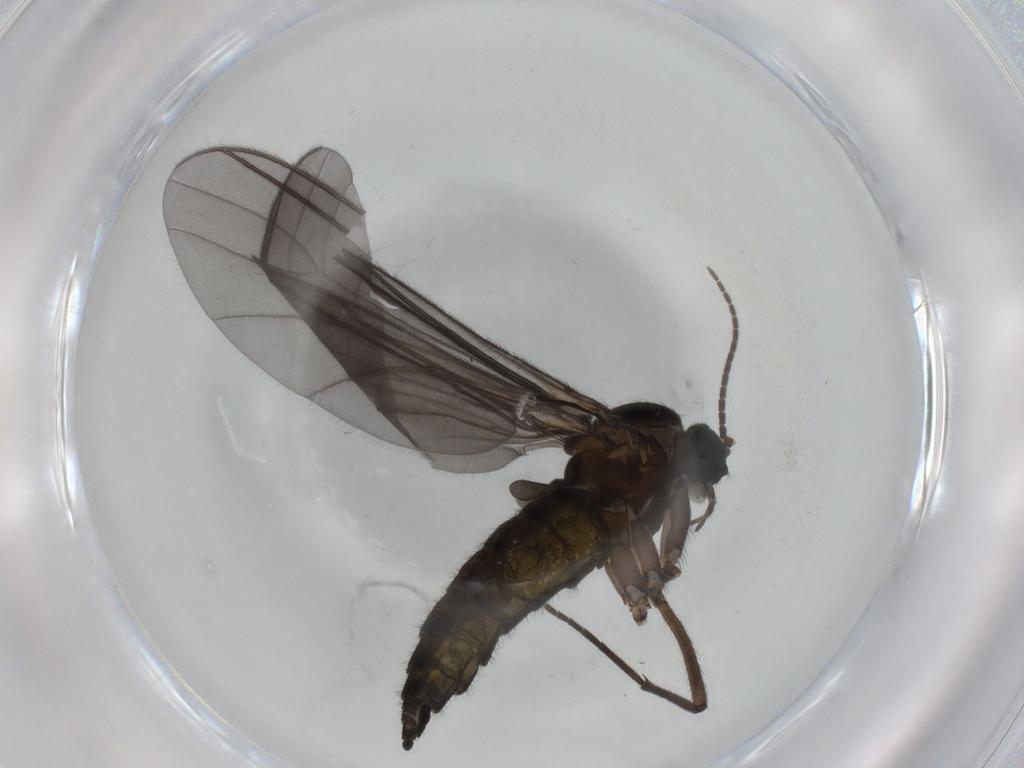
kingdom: Animalia
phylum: Arthropoda
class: Insecta
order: Diptera
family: Sciaridae
